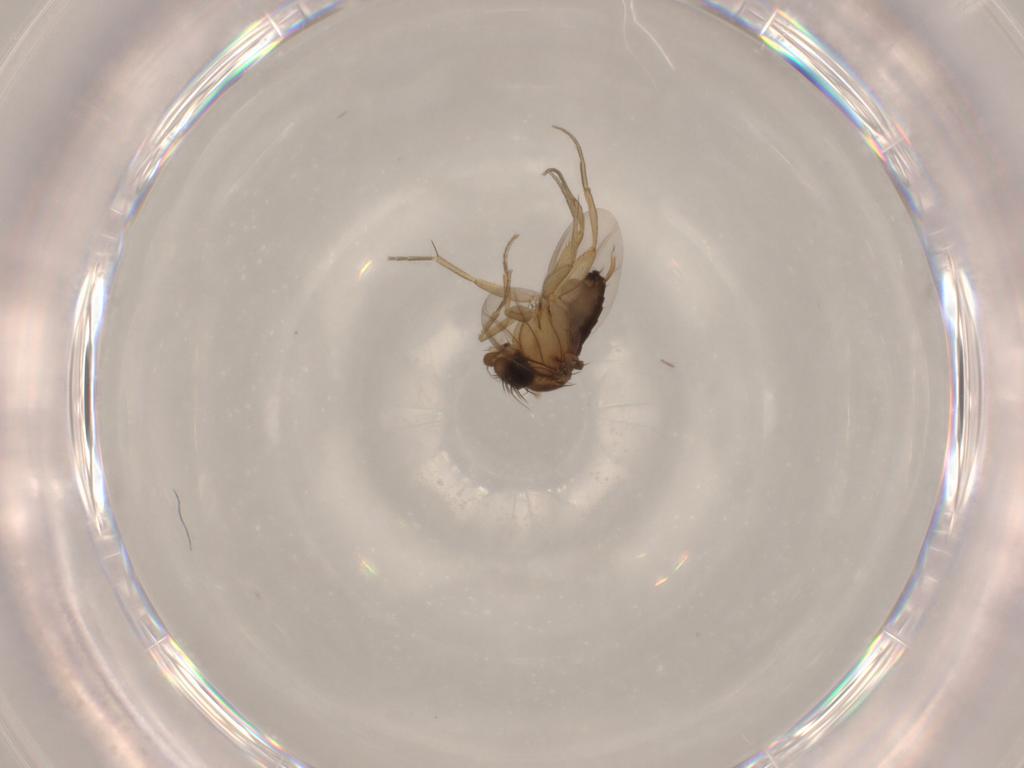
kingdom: Animalia
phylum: Arthropoda
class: Insecta
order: Diptera
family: Phoridae
